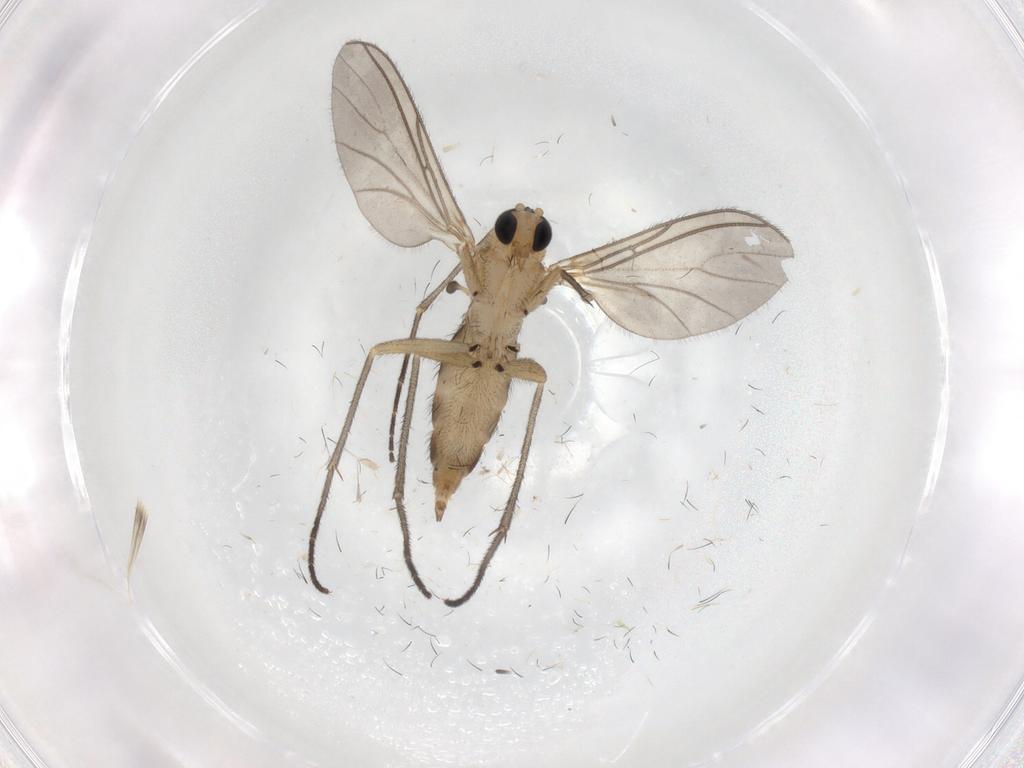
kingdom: Animalia
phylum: Arthropoda
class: Insecta
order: Diptera
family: Sciaridae
